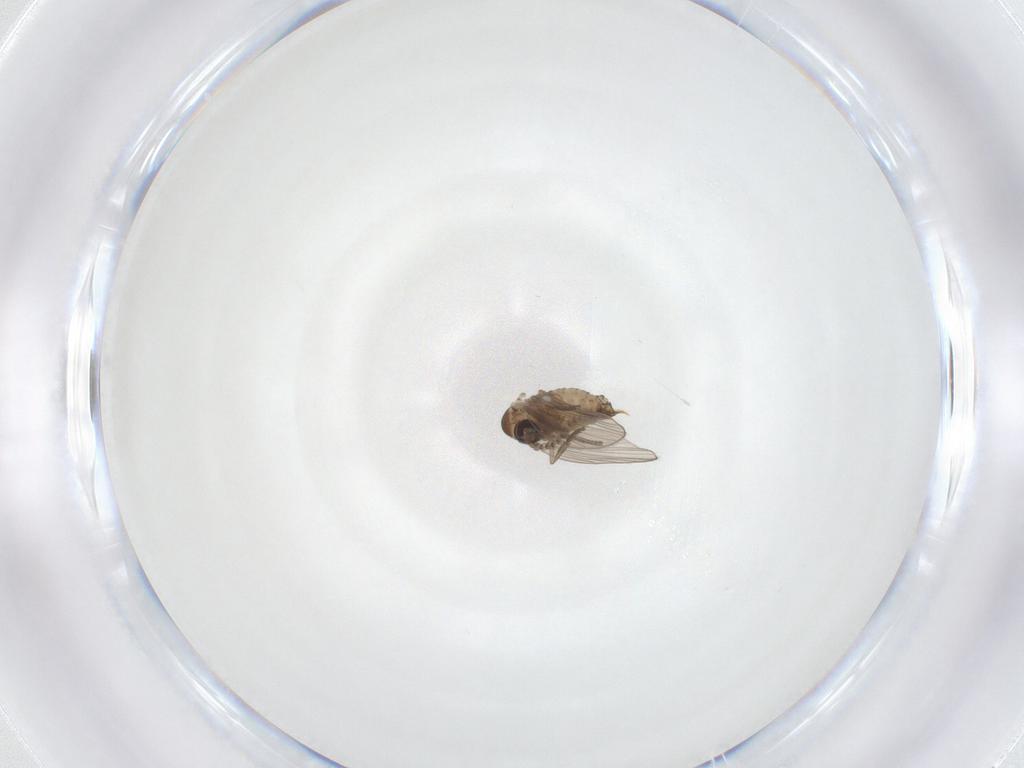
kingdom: Animalia
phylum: Arthropoda
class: Insecta
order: Diptera
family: Psychodidae
